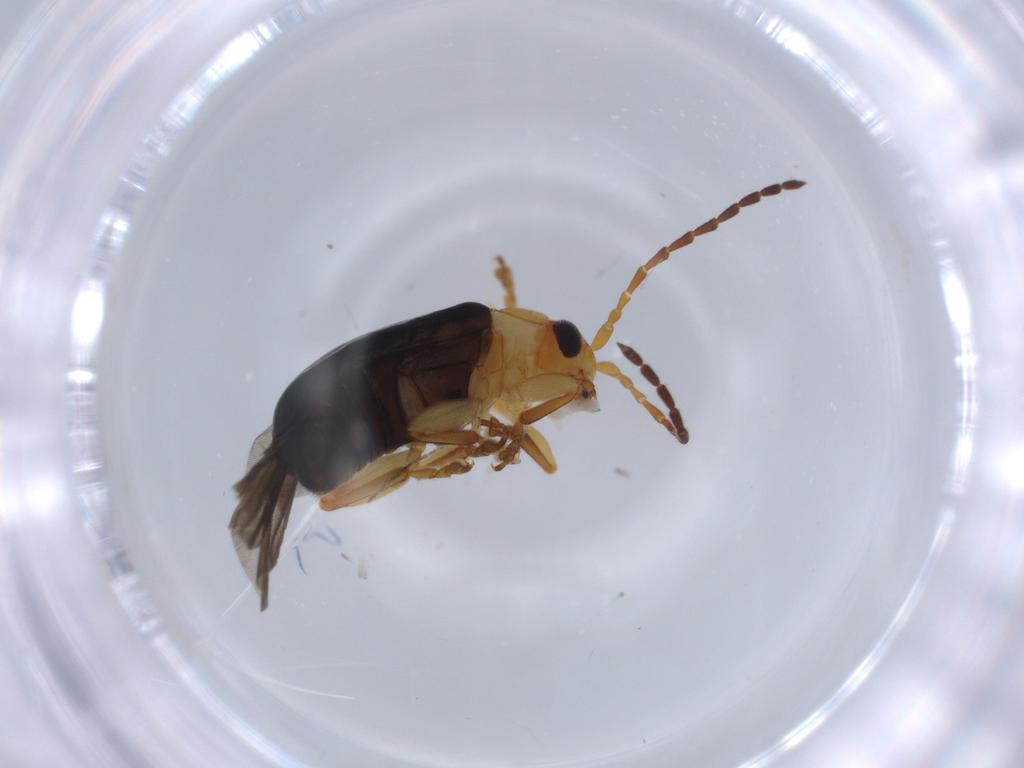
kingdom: Animalia
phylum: Arthropoda
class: Insecta
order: Coleoptera
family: Chrysomelidae
